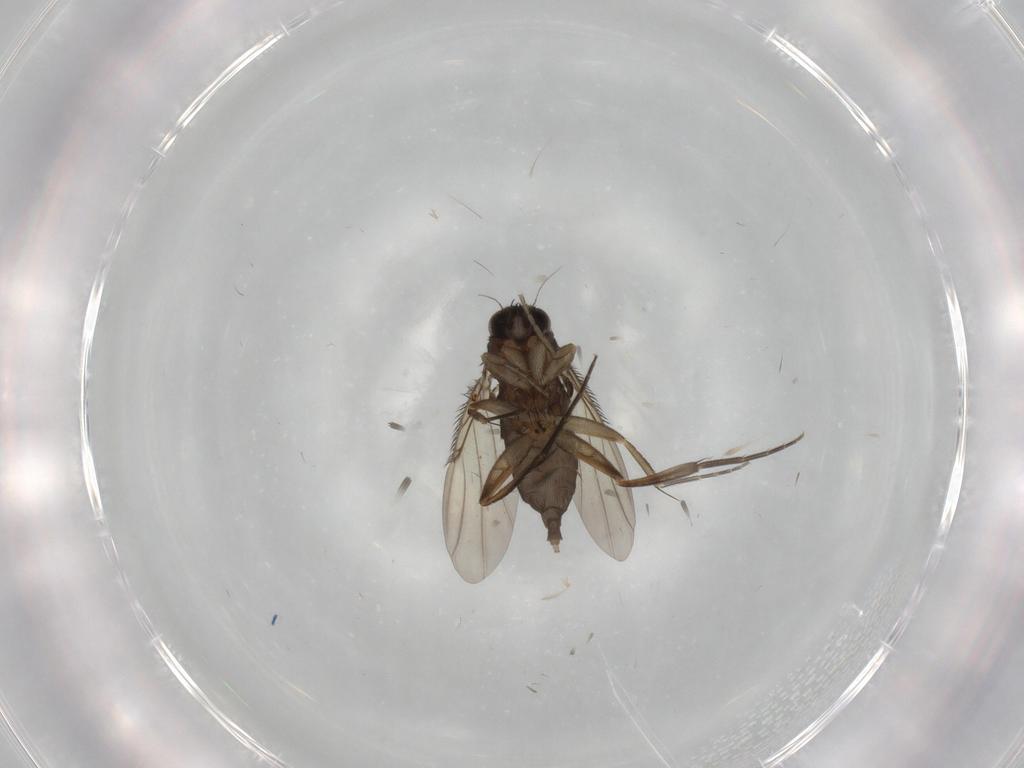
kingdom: Animalia
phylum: Arthropoda
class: Insecta
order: Diptera
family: Phoridae
